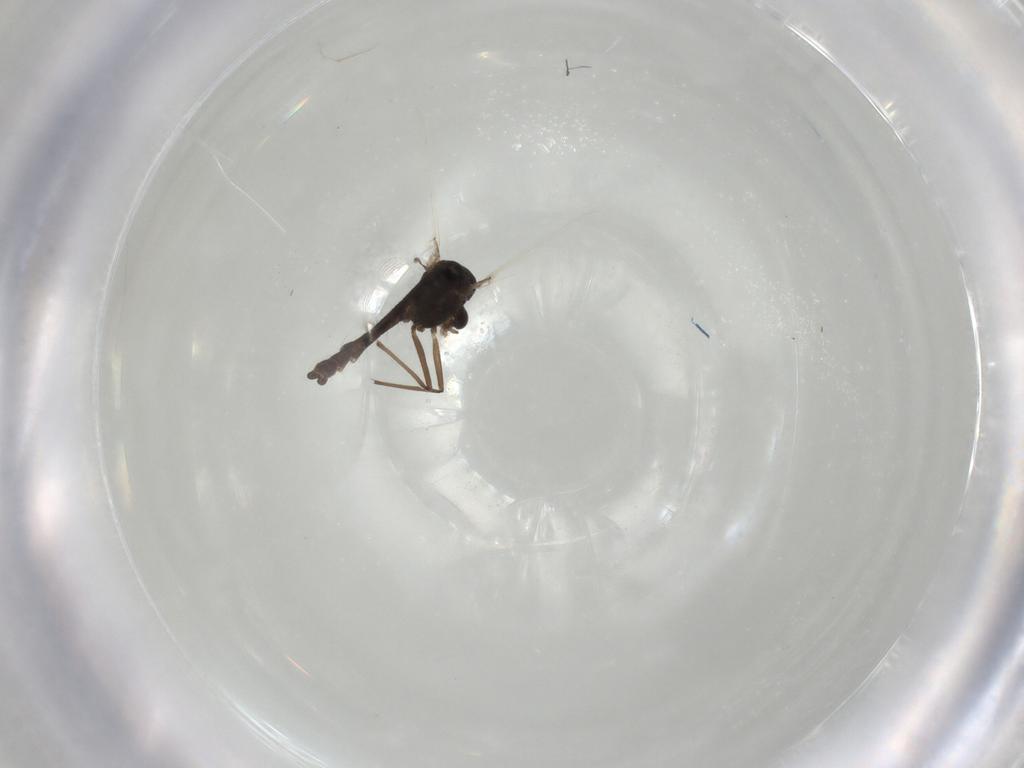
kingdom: Animalia
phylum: Arthropoda
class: Insecta
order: Diptera
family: Chironomidae
